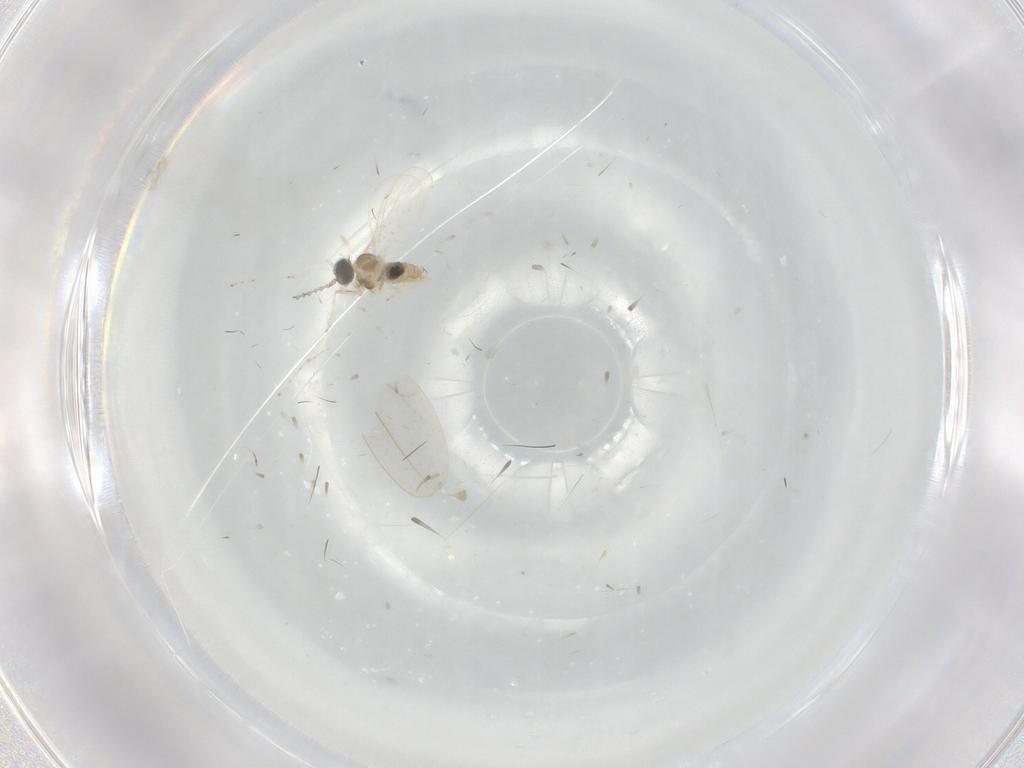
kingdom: Animalia
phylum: Arthropoda
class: Insecta
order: Diptera
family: Cecidomyiidae
